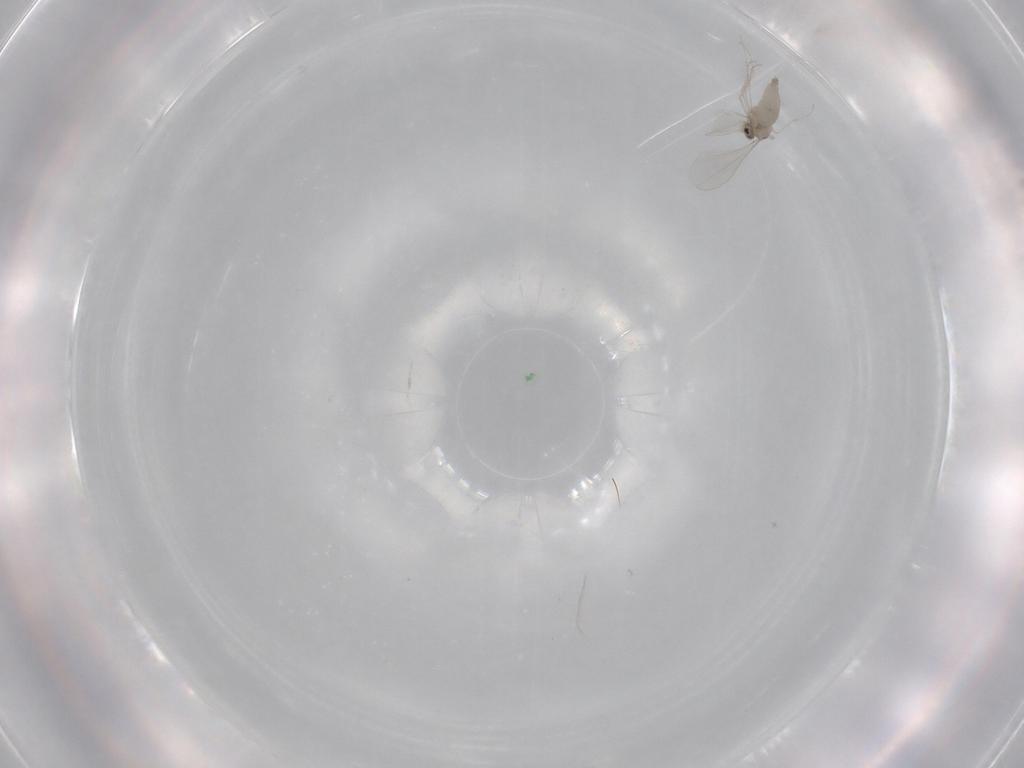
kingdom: Animalia
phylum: Arthropoda
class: Insecta
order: Diptera
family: Cecidomyiidae
